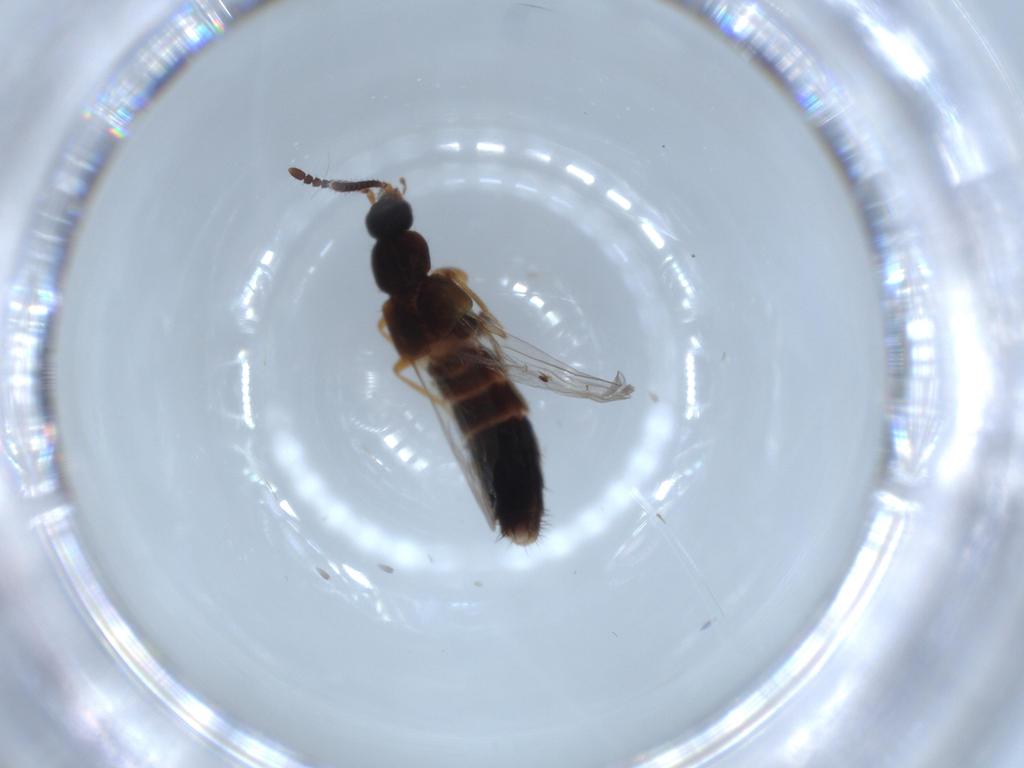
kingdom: Animalia
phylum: Arthropoda
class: Insecta
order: Coleoptera
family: Staphylinidae
